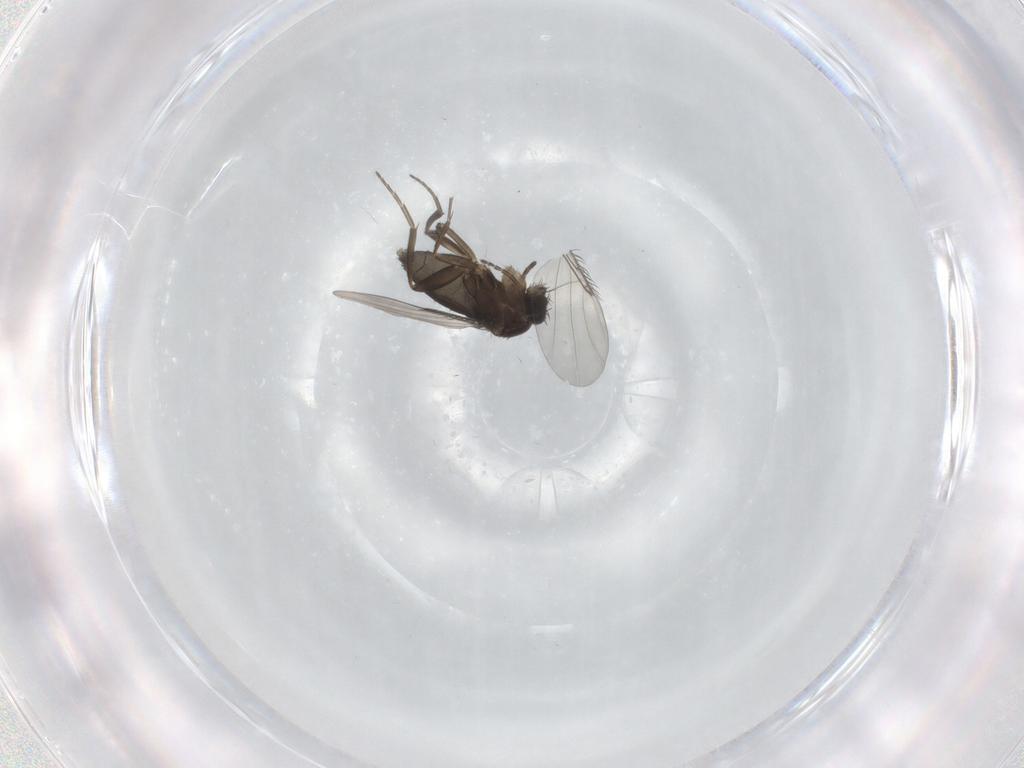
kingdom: Animalia
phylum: Arthropoda
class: Insecta
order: Diptera
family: Phoridae
